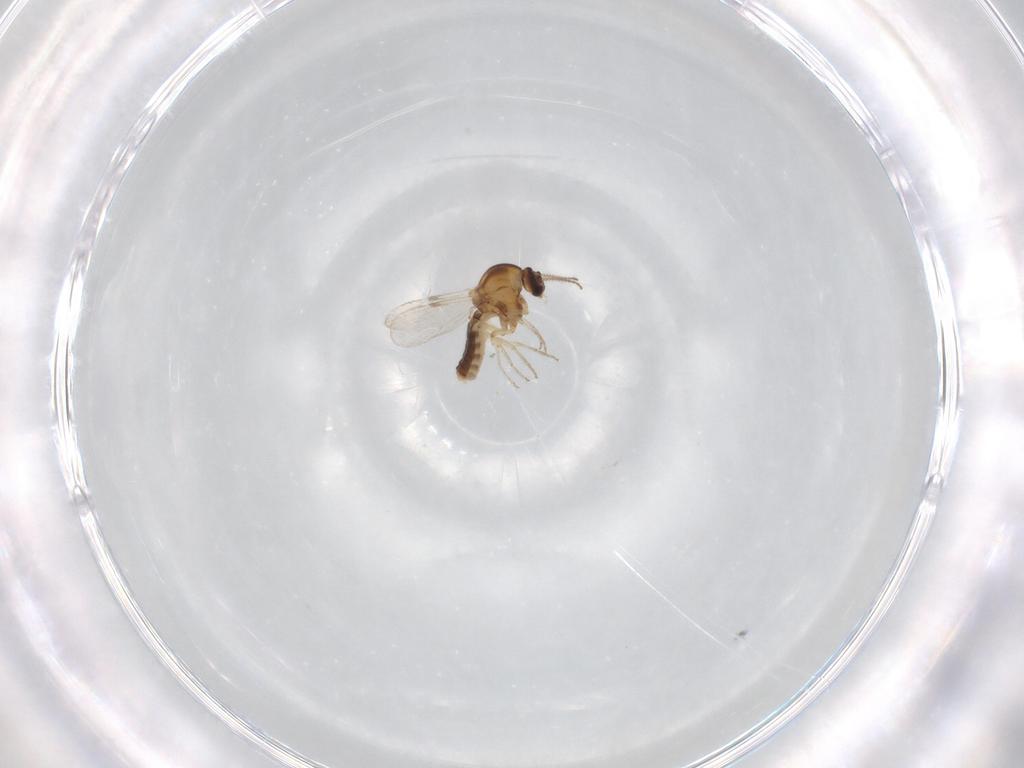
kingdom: Animalia
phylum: Arthropoda
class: Insecta
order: Diptera
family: Ceratopogonidae
